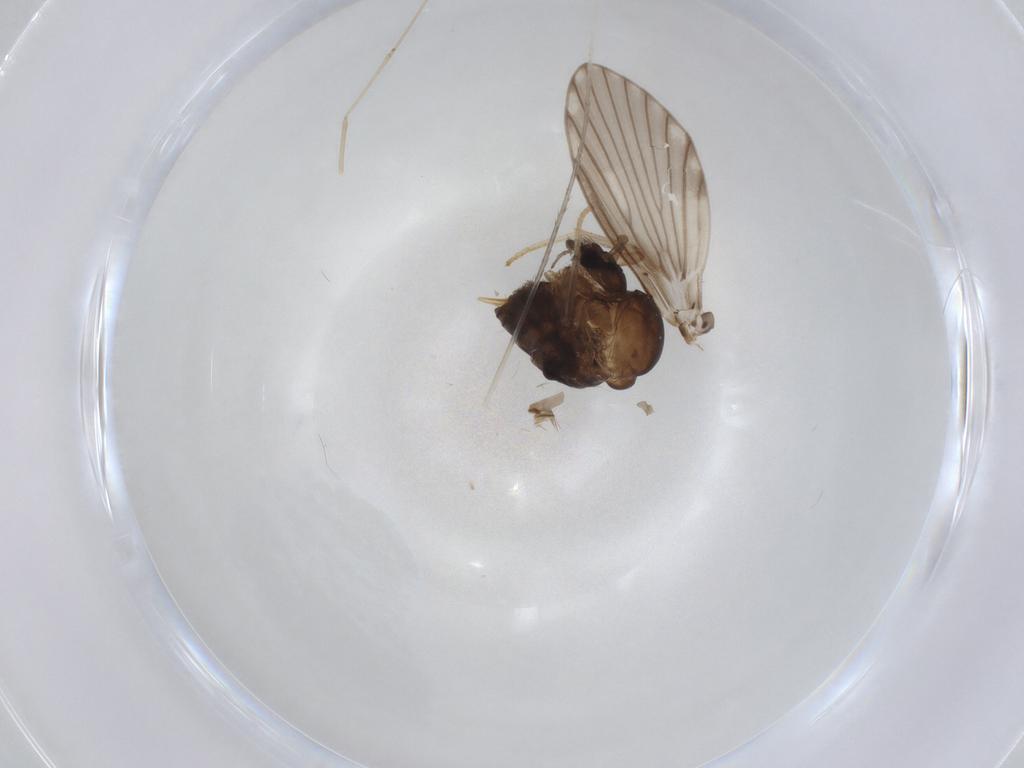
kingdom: Animalia
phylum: Arthropoda
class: Insecta
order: Diptera
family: Psychodidae
